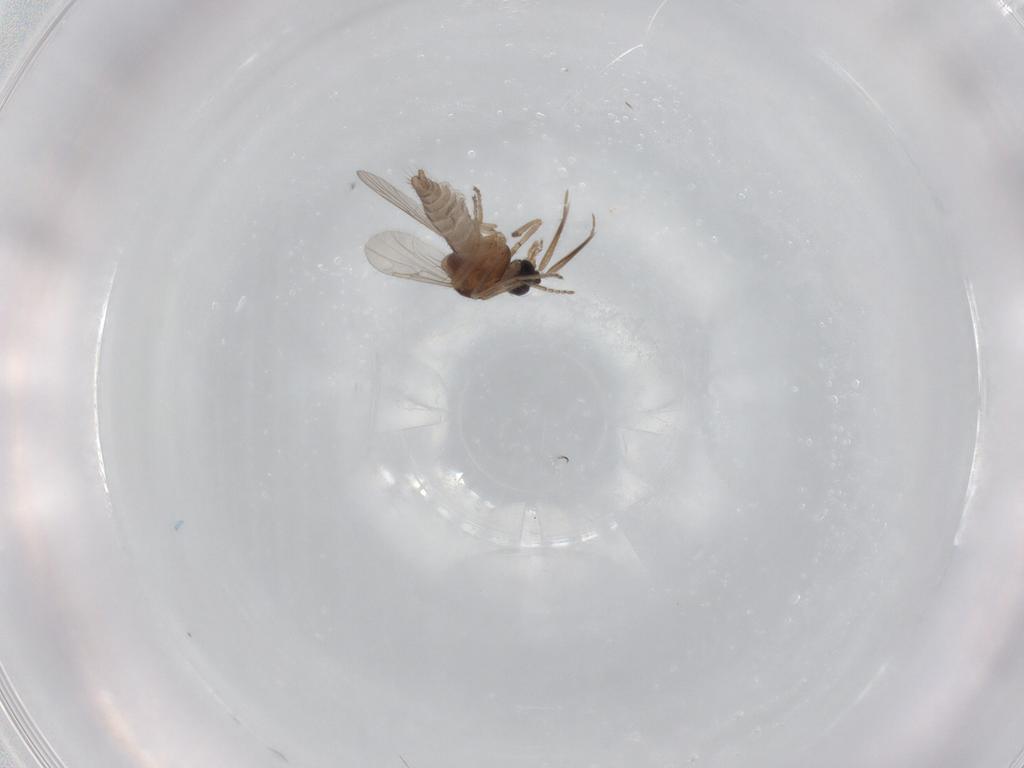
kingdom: Animalia
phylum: Arthropoda
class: Insecta
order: Diptera
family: Ceratopogonidae
